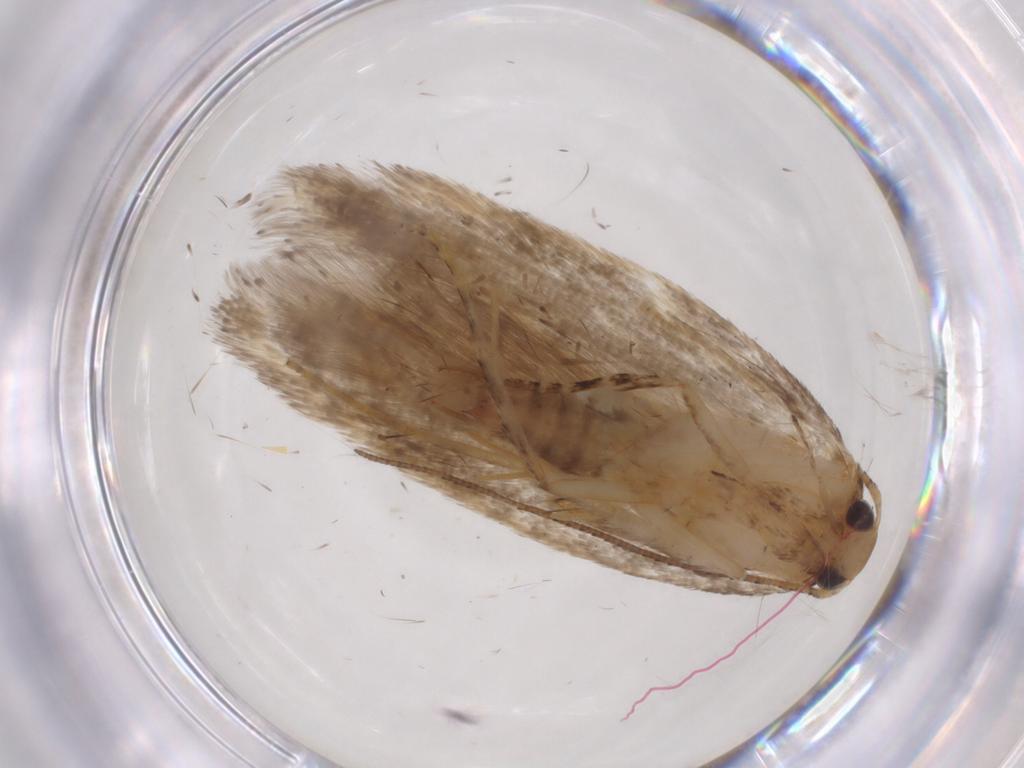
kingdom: Animalia
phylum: Arthropoda
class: Insecta
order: Lepidoptera
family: Gelechiidae
